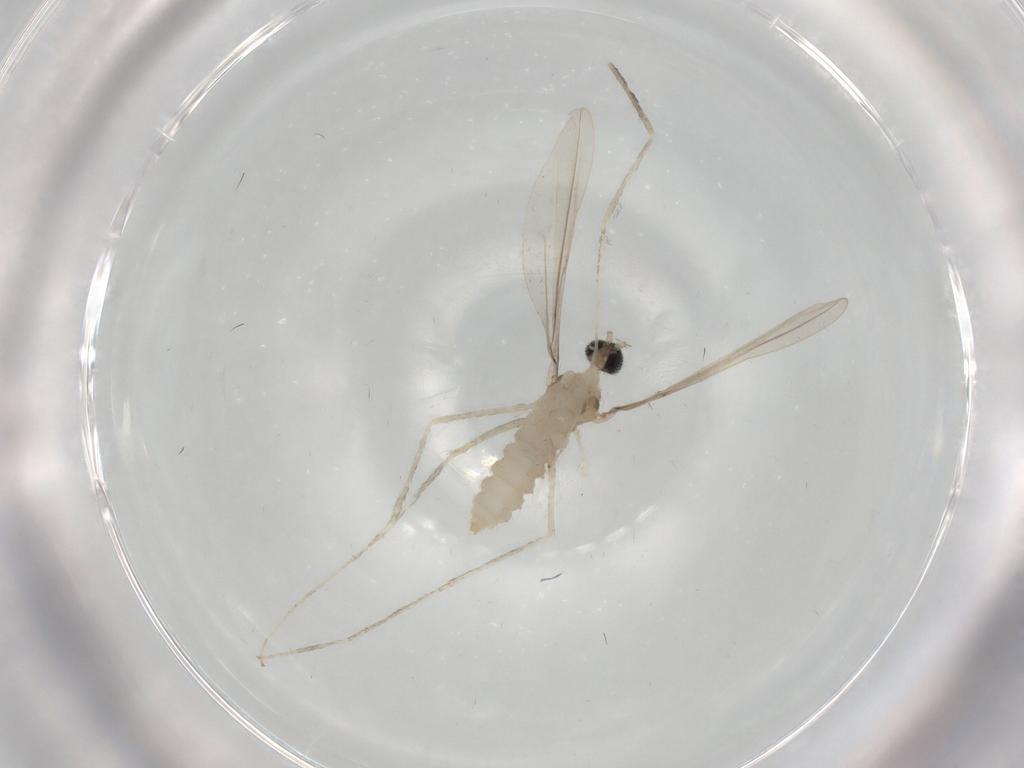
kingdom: Animalia
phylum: Arthropoda
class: Insecta
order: Diptera
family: Cecidomyiidae
